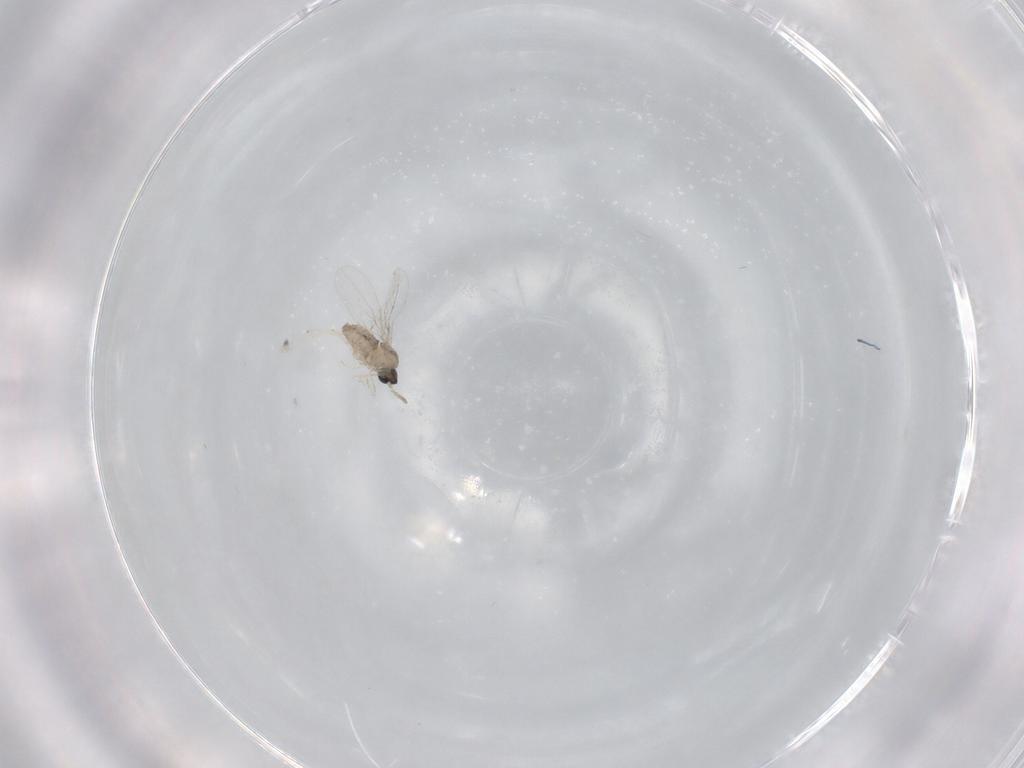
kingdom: Animalia
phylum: Arthropoda
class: Insecta
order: Diptera
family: Cecidomyiidae
